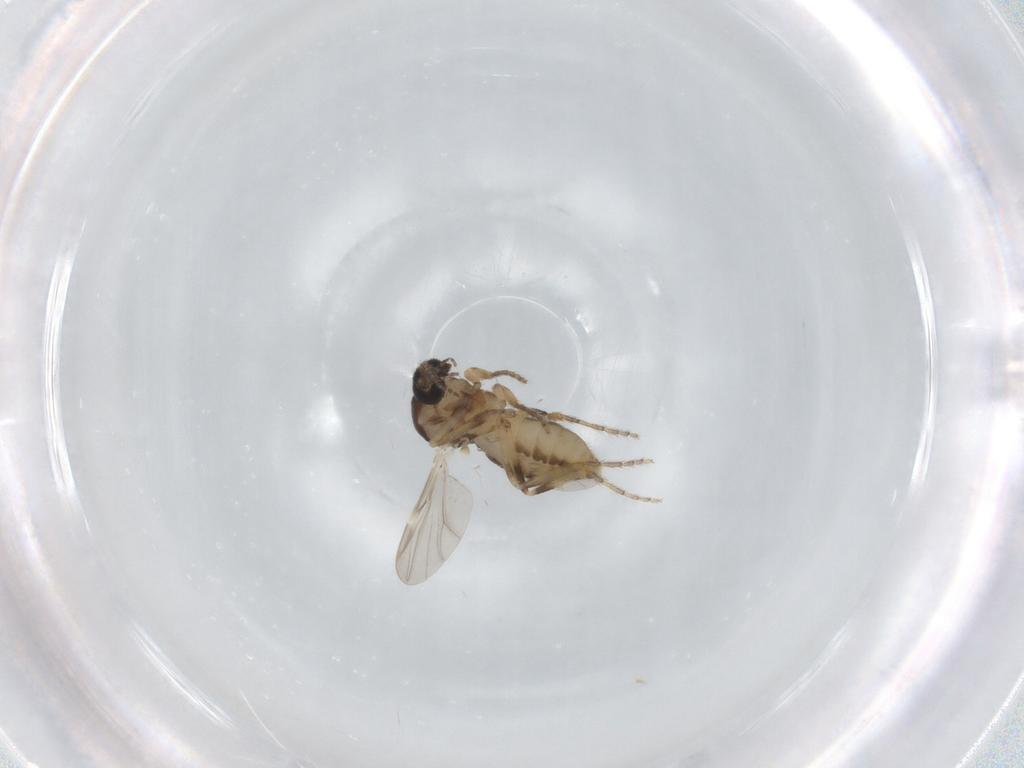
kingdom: Animalia
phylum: Arthropoda
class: Insecta
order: Diptera
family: Ceratopogonidae
